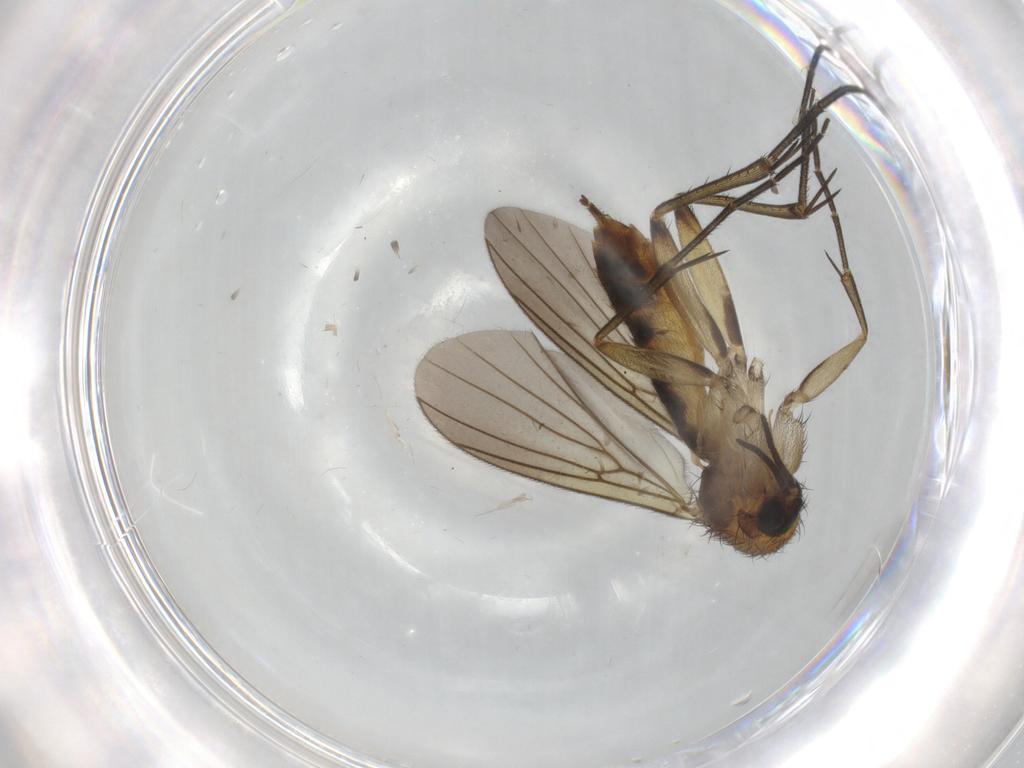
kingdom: Animalia
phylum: Arthropoda
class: Insecta
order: Diptera
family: Mycetophilidae
